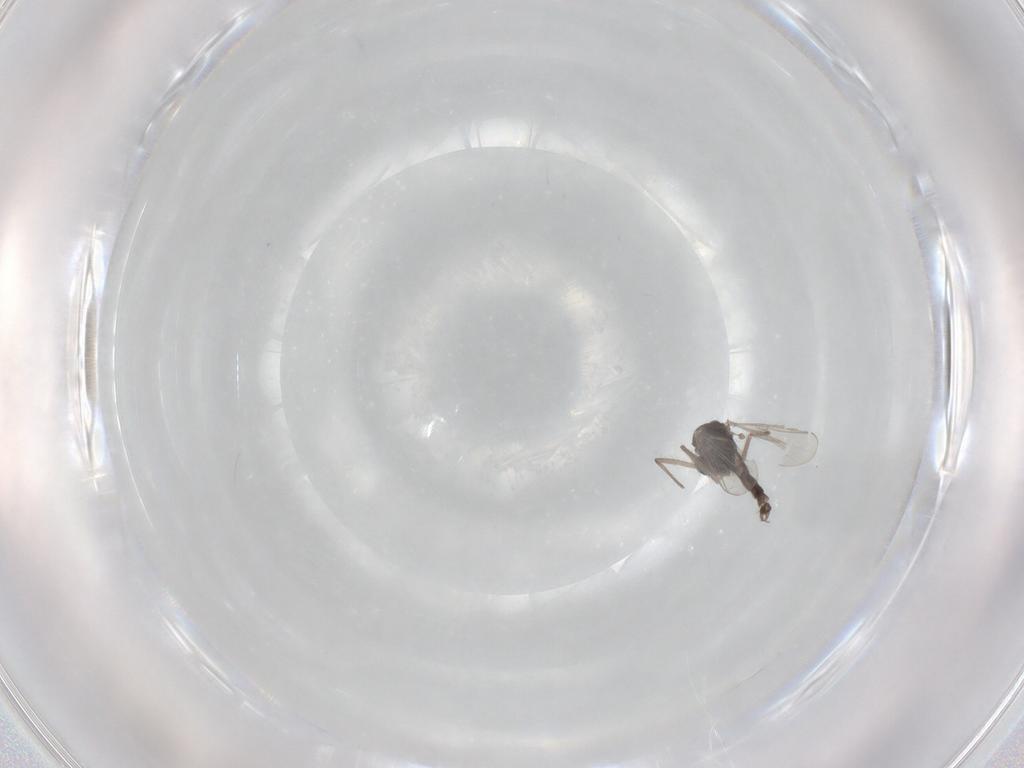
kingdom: Animalia
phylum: Arthropoda
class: Insecta
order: Diptera
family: Chironomidae
